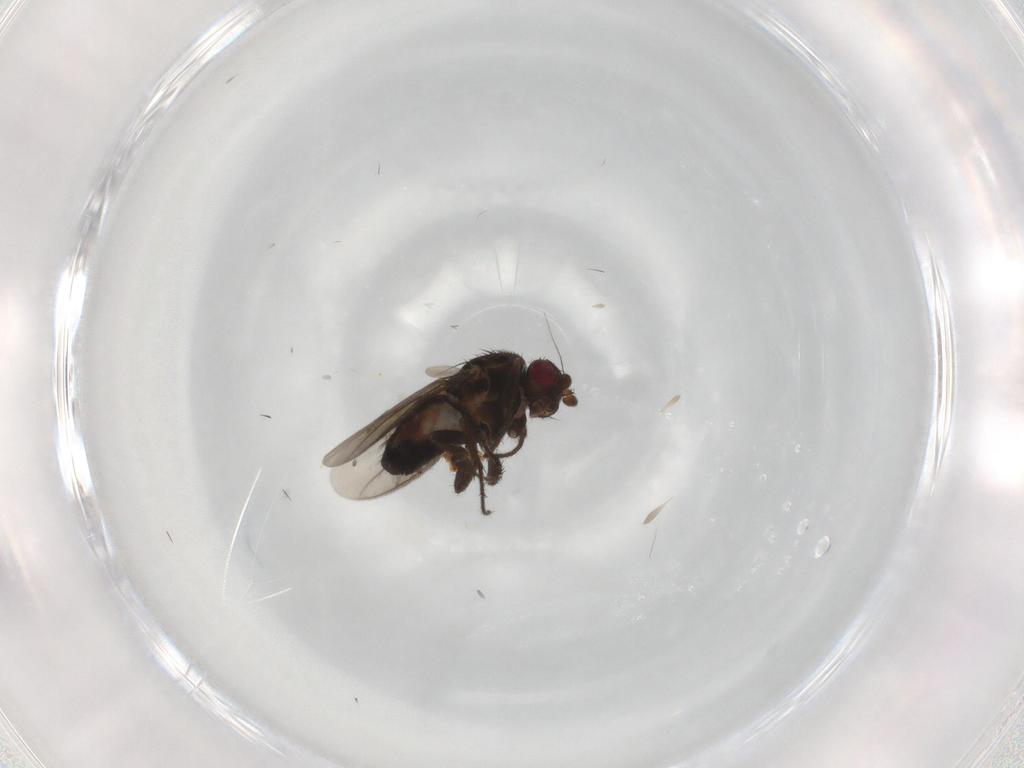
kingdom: Animalia
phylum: Arthropoda
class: Insecta
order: Diptera
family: Sphaeroceridae
